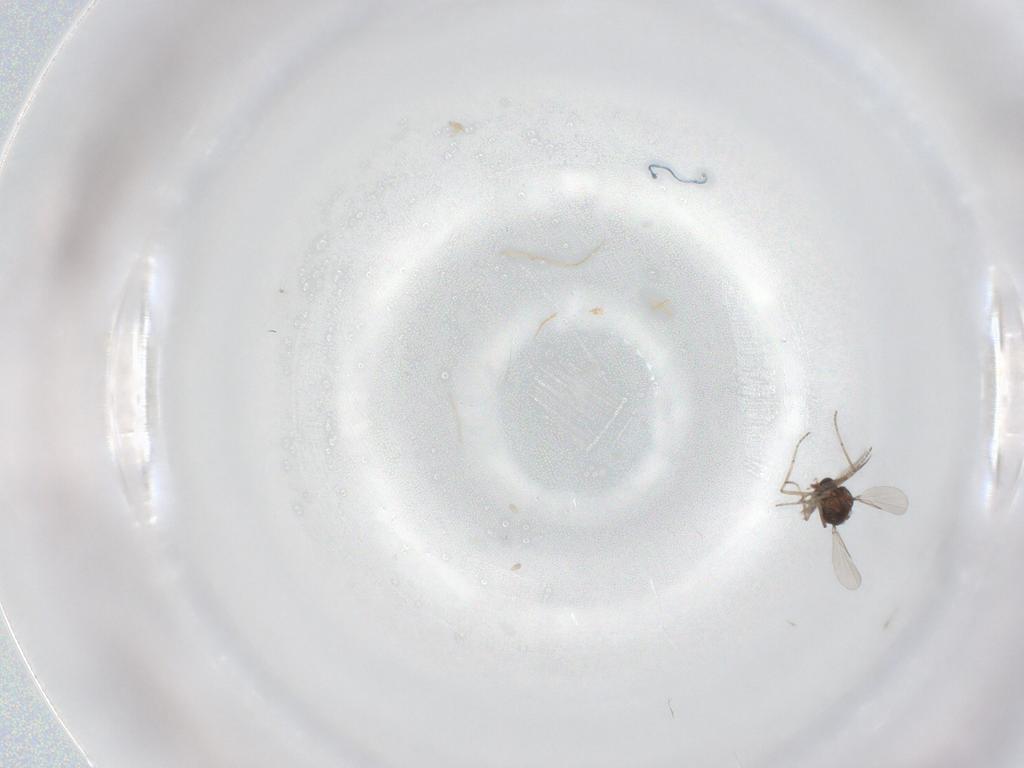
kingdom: Animalia
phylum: Arthropoda
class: Insecta
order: Diptera
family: Ceratopogonidae
